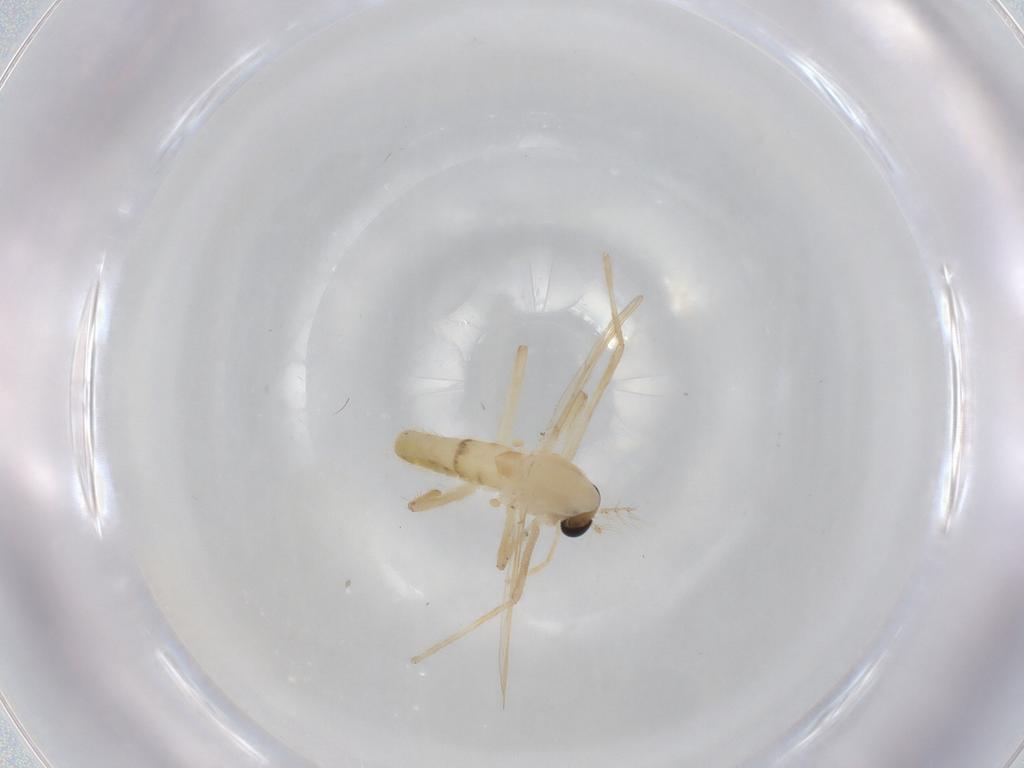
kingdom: Animalia
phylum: Arthropoda
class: Insecta
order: Diptera
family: Chironomidae
